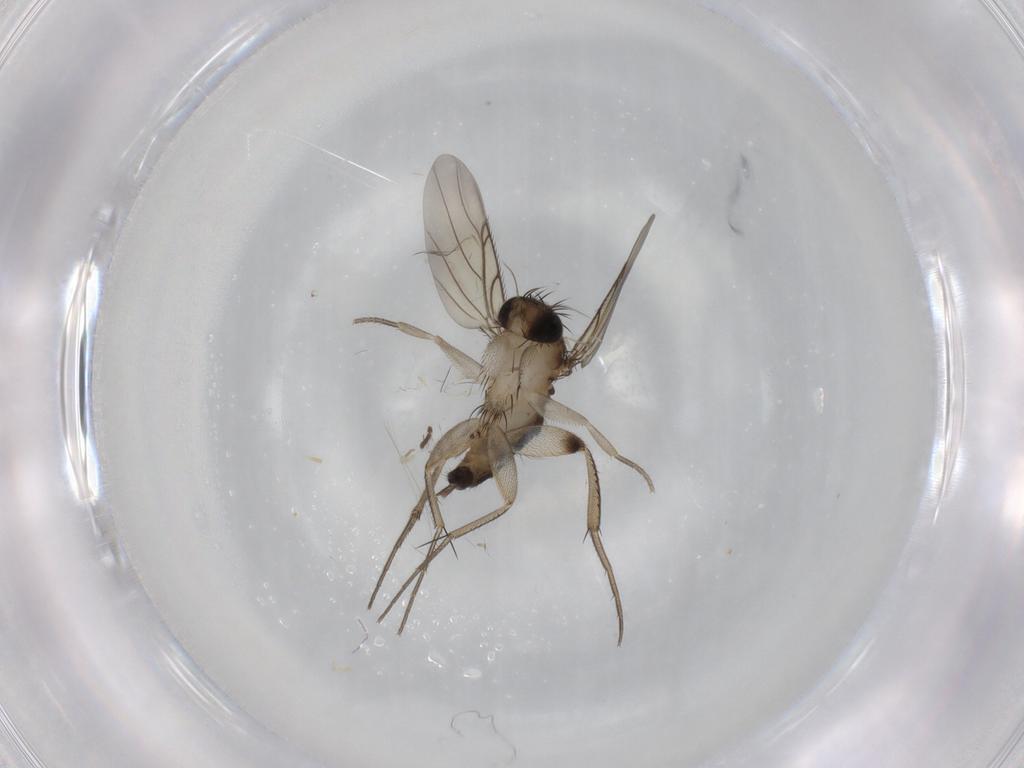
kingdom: Animalia
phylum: Arthropoda
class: Insecta
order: Diptera
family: Phoridae
